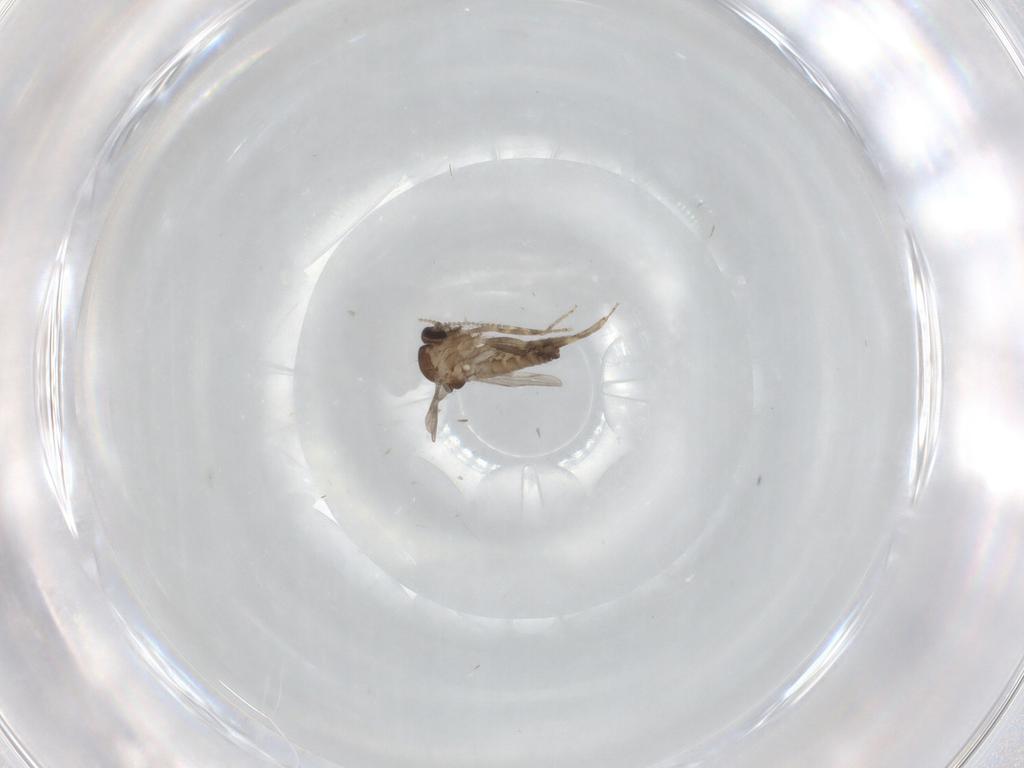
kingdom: Animalia
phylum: Arthropoda
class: Insecta
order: Diptera
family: Ceratopogonidae
